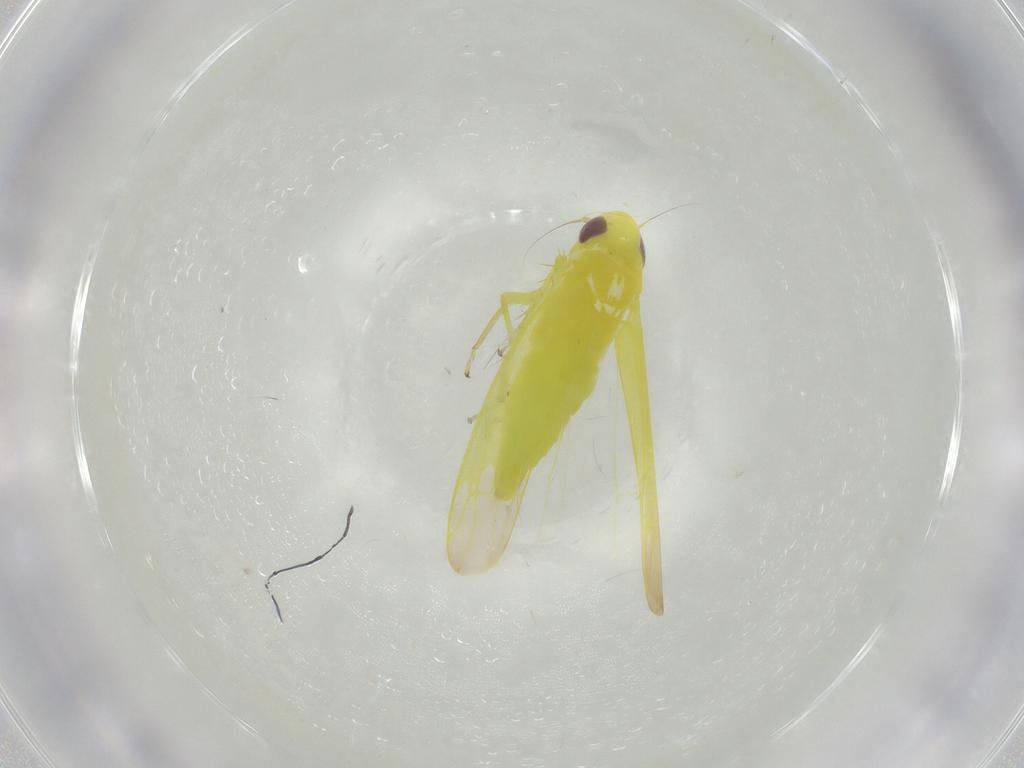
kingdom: Animalia
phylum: Arthropoda
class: Insecta
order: Hemiptera
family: Cicadellidae
